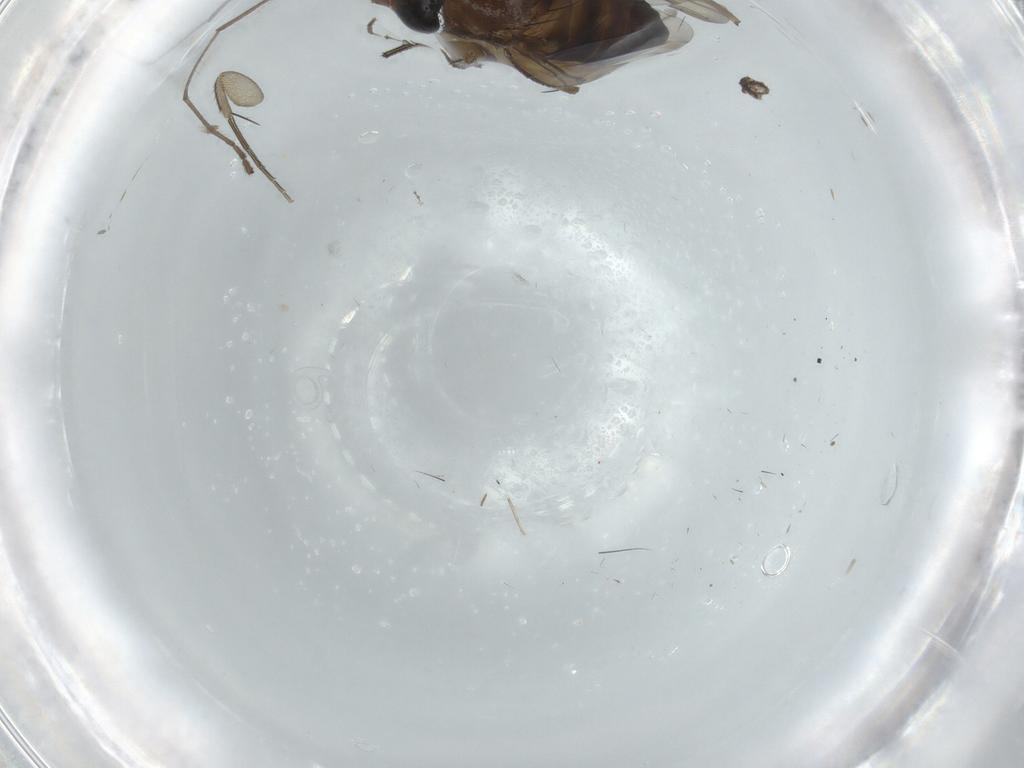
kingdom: Animalia
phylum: Arthropoda
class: Insecta
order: Diptera
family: Phoridae
